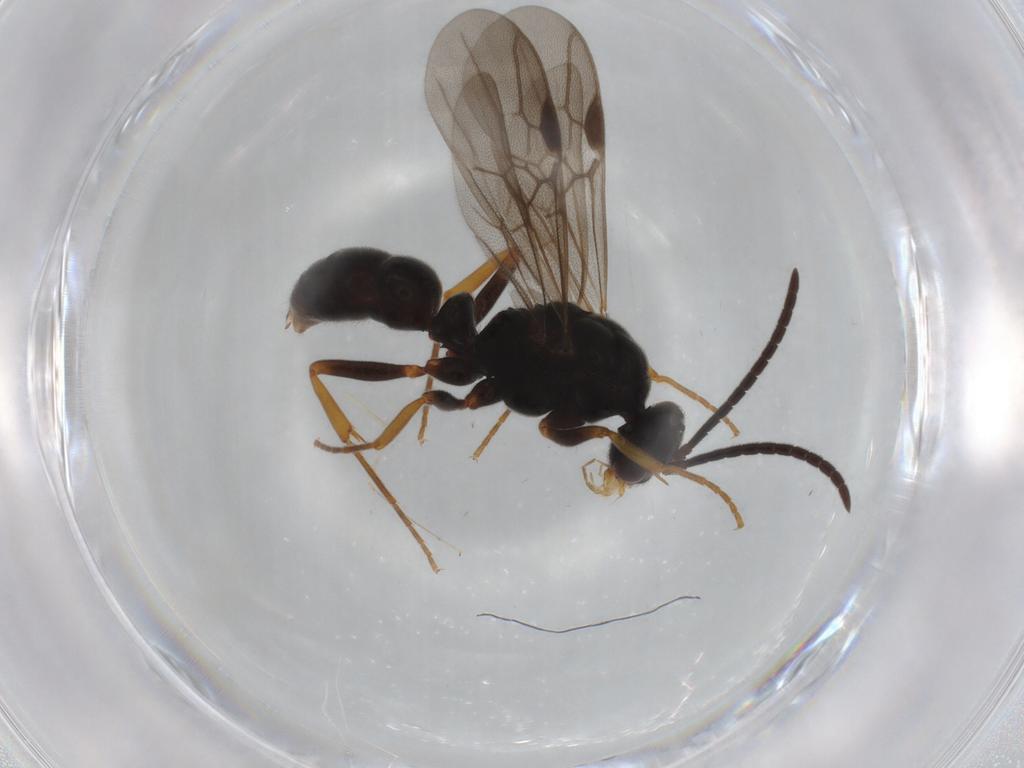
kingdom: Animalia
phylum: Arthropoda
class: Insecta
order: Hymenoptera
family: Formicidae
